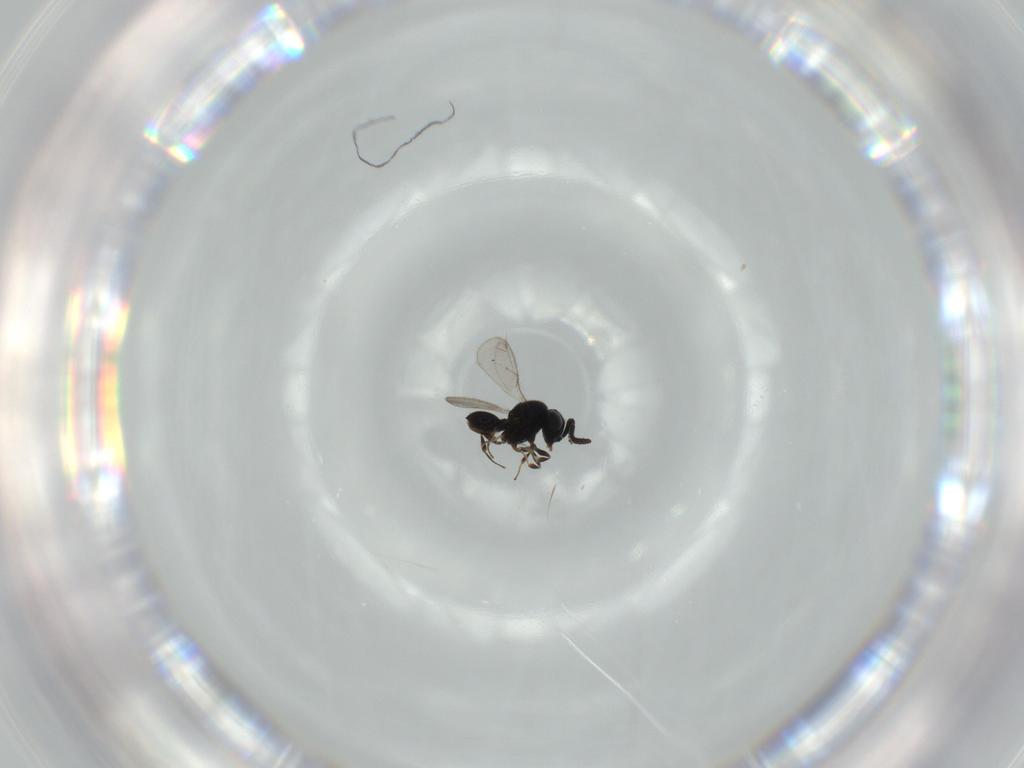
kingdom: Animalia
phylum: Arthropoda
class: Insecta
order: Hymenoptera
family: Scelionidae
